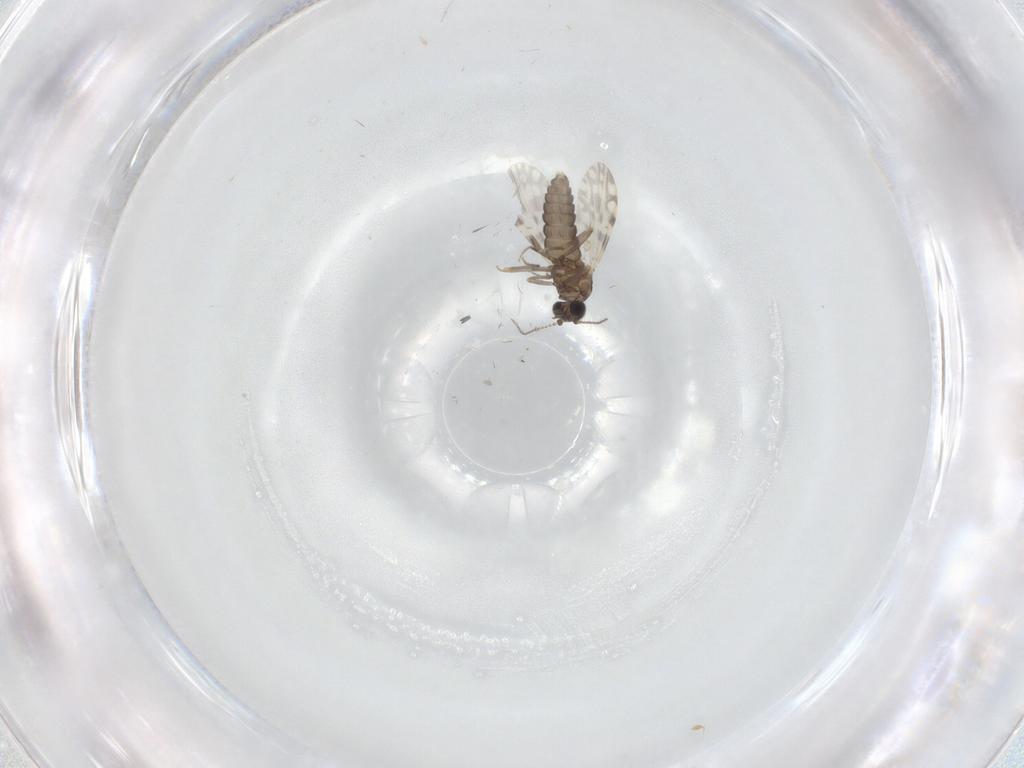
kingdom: Animalia
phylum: Arthropoda
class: Insecta
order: Diptera
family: Ceratopogonidae
